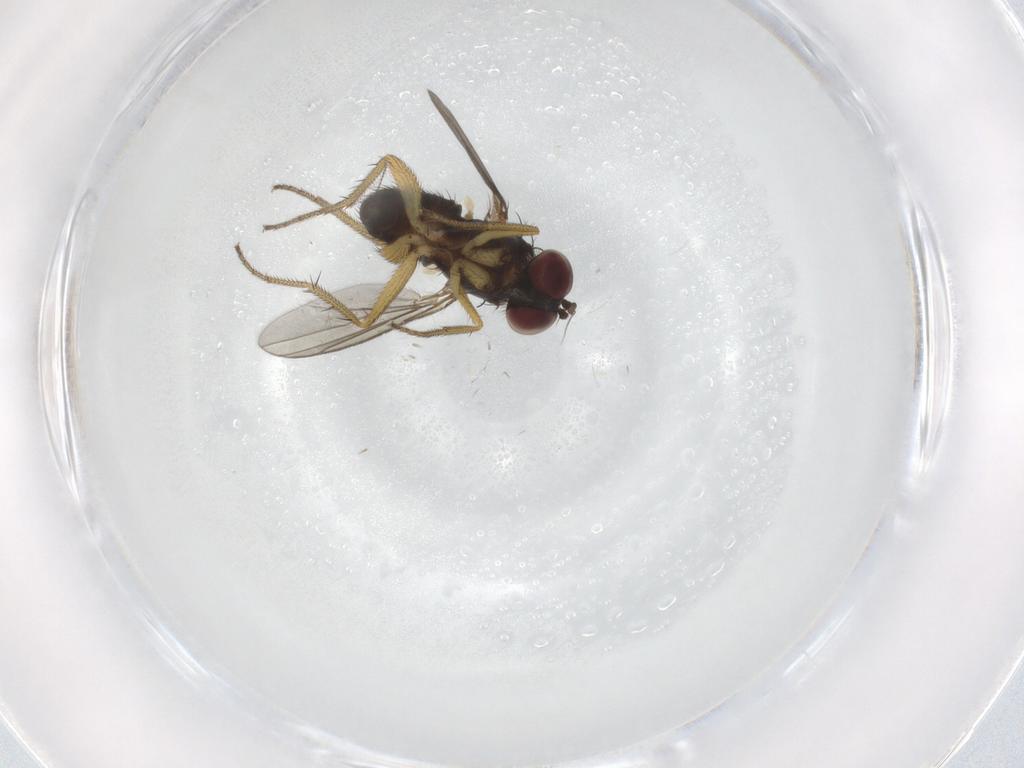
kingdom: Animalia
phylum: Arthropoda
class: Insecta
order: Diptera
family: Chironomidae
